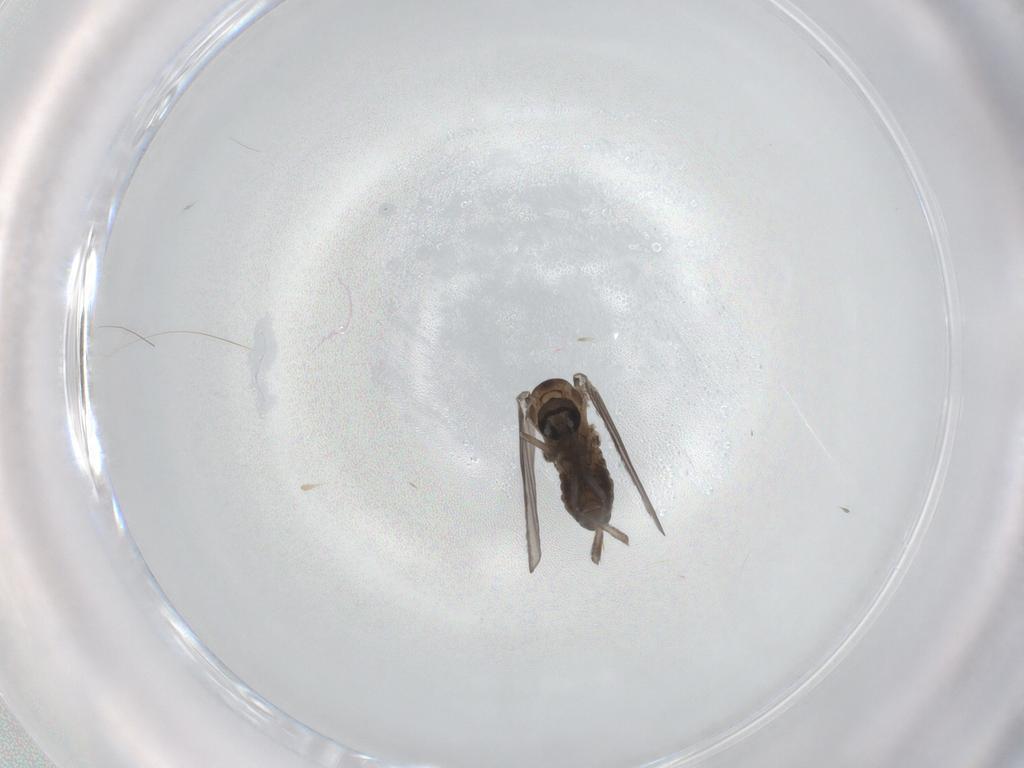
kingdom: Animalia
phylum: Arthropoda
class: Insecta
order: Diptera
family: Psychodidae
